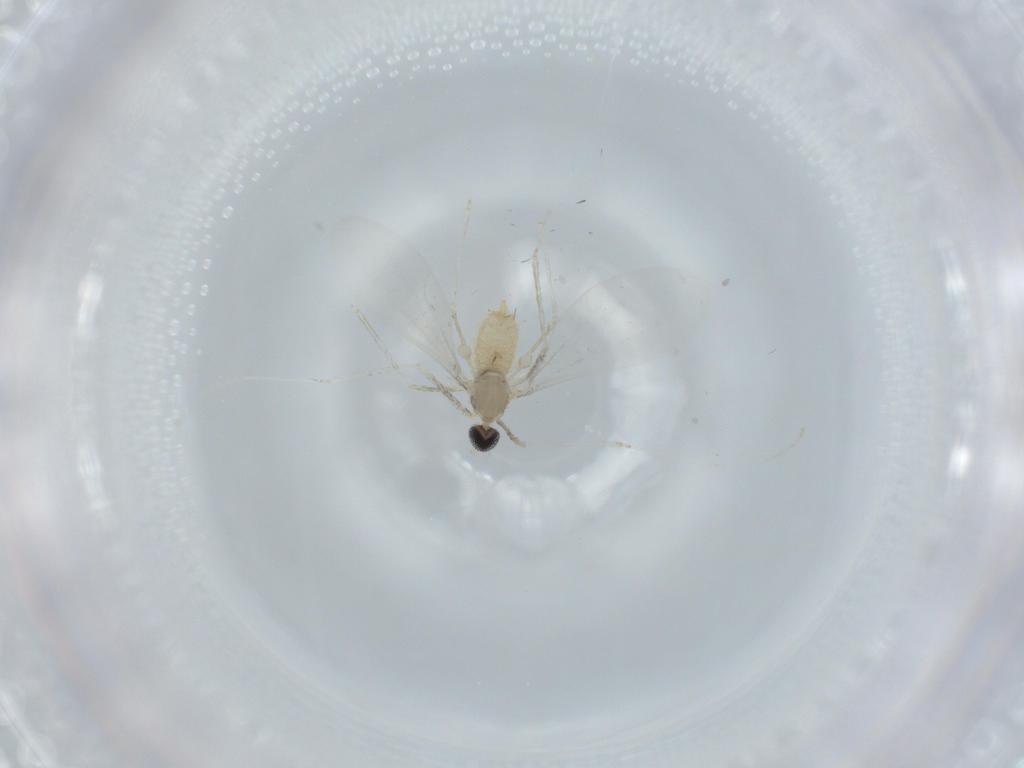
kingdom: Animalia
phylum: Arthropoda
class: Insecta
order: Diptera
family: Cecidomyiidae
